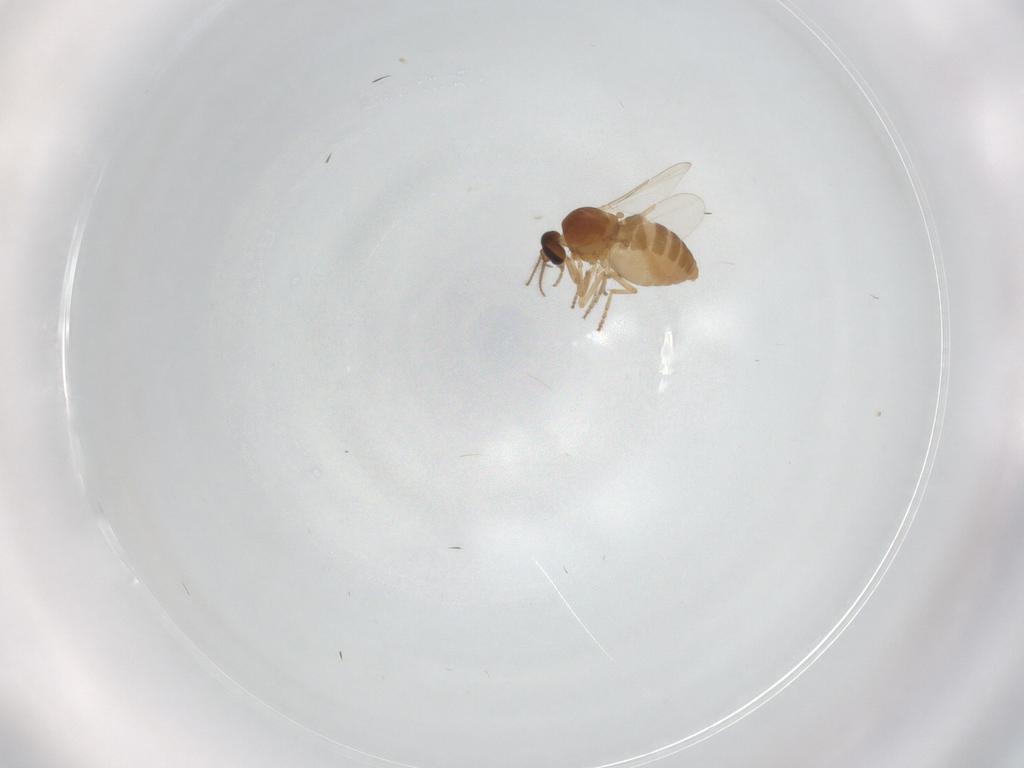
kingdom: Animalia
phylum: Arthropoda
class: Insecta
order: Diptera
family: Ceratopogonidae
